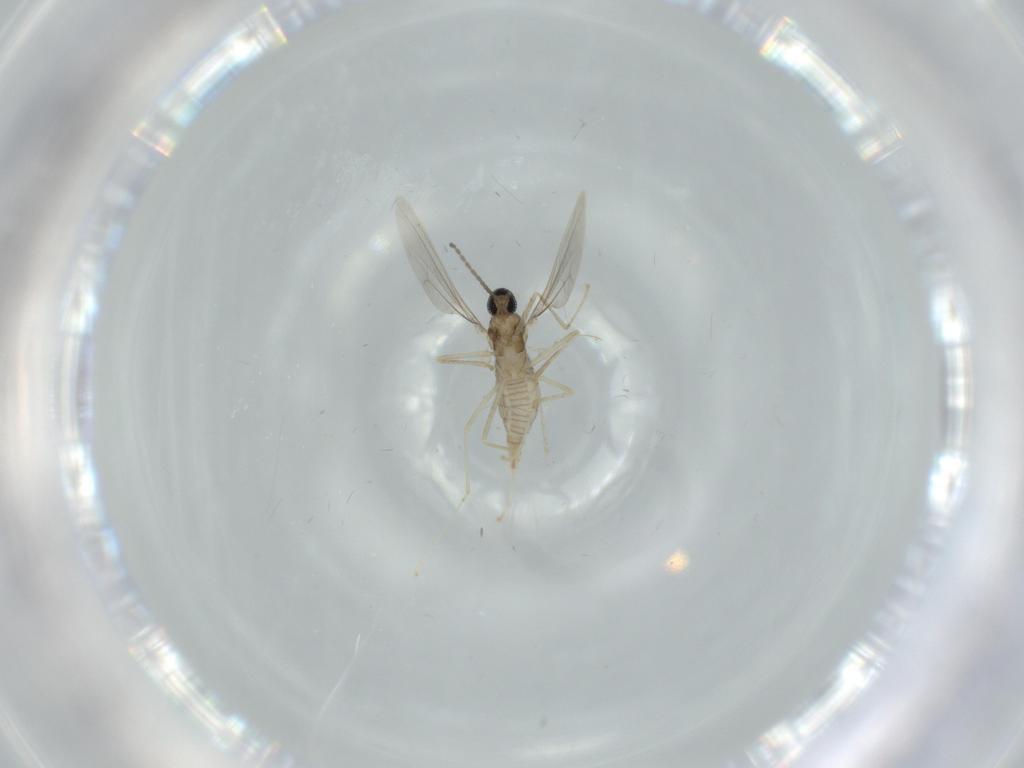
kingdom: Animalia
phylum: Arthropoda
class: Insecta
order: Diptera
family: Cecidomyiidae
